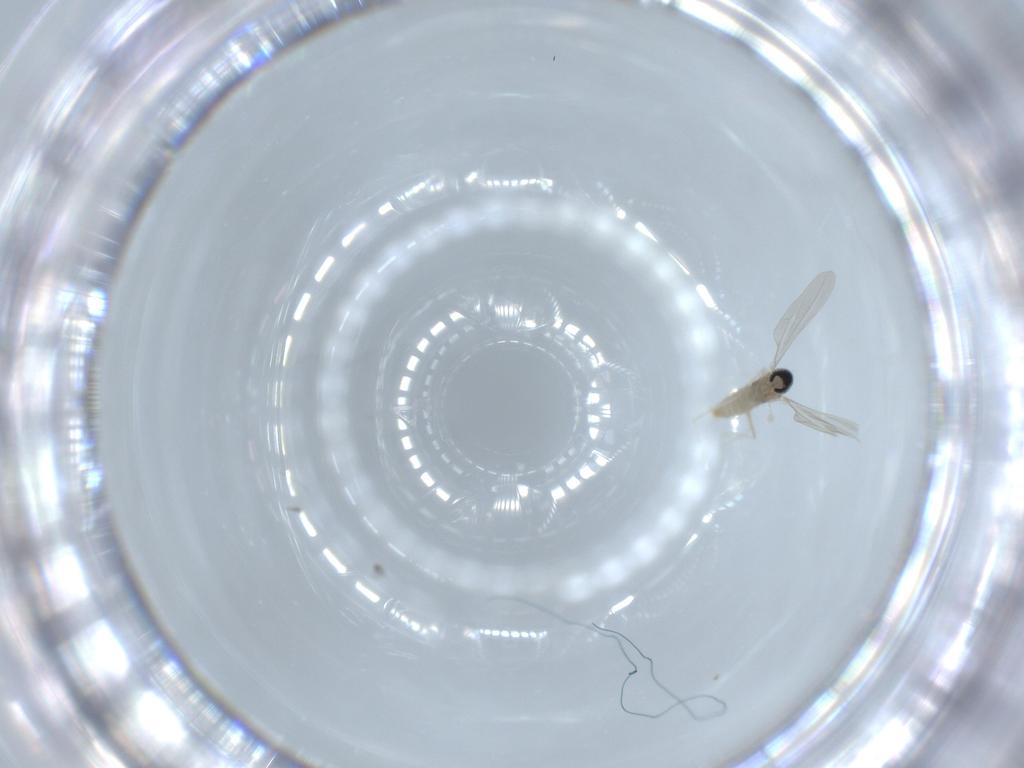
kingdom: Animalia
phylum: Arthropoda
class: Insecta
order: Diptera
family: Cecidomyiidae
